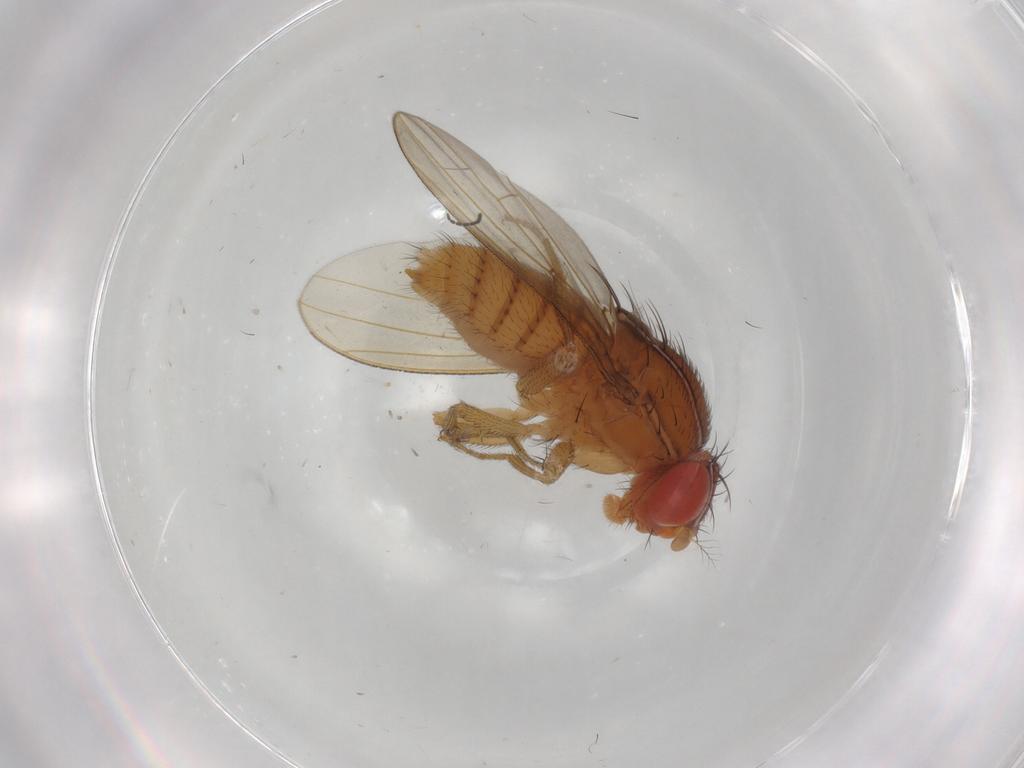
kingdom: Animalia
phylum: Arthropoda
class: Insecta
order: Diptera
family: Drosophilidae
